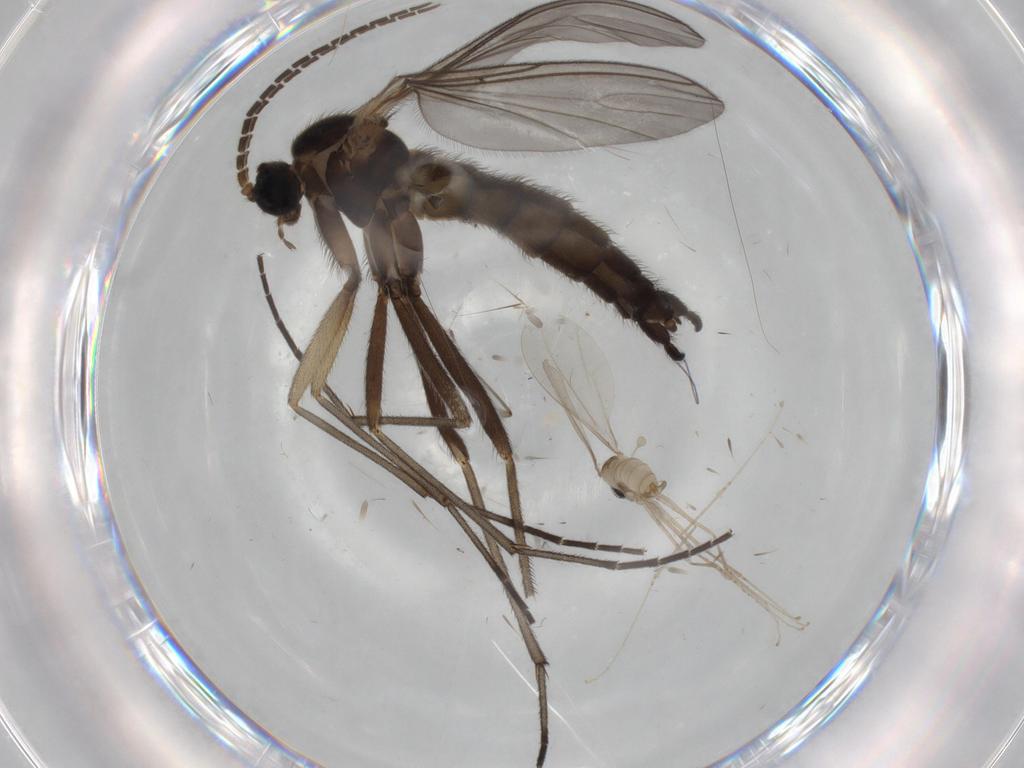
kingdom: Animalia
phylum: Arthropoda
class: Insecta
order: Diptera
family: Sciaridae
